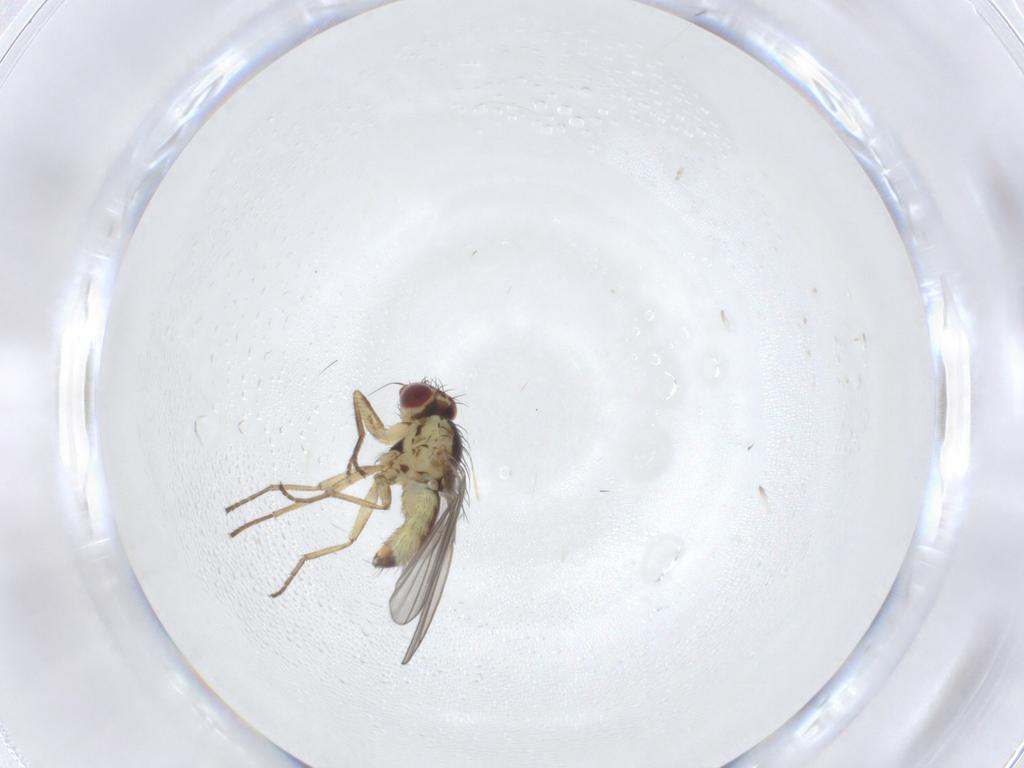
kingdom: Animalia
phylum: Arthropoda
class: Insecta
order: Diptera
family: Agromyzidae
